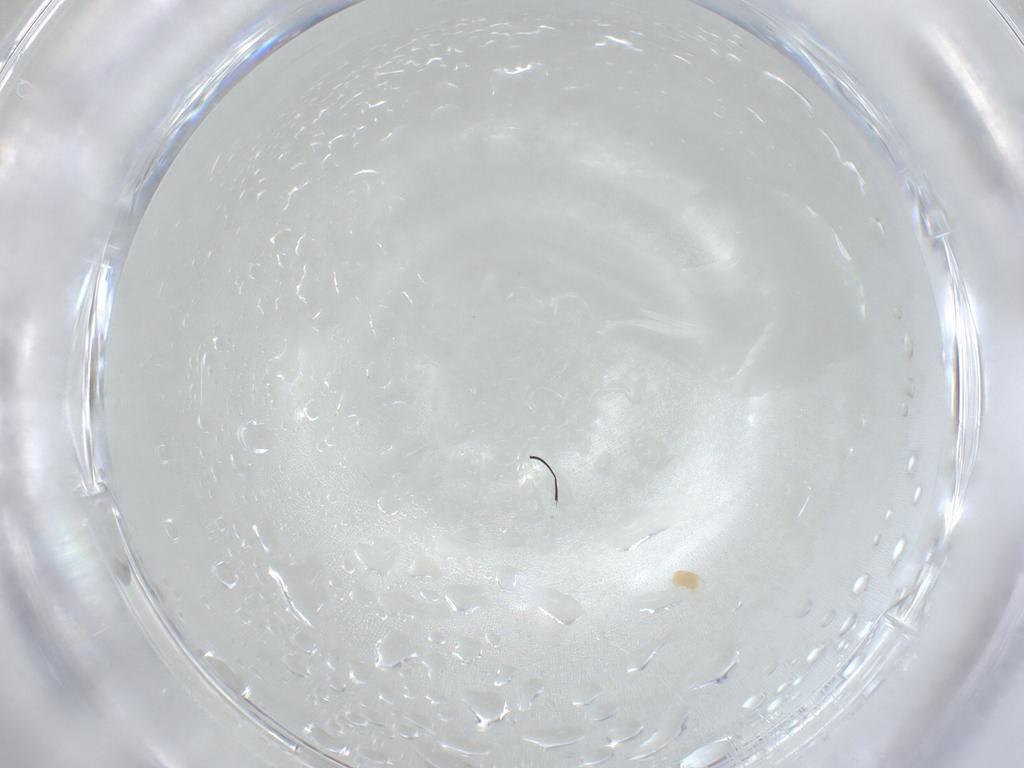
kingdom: Animalia
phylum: Arthropoda
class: Arachnida
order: Trombidiformes
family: Tetranychidae
